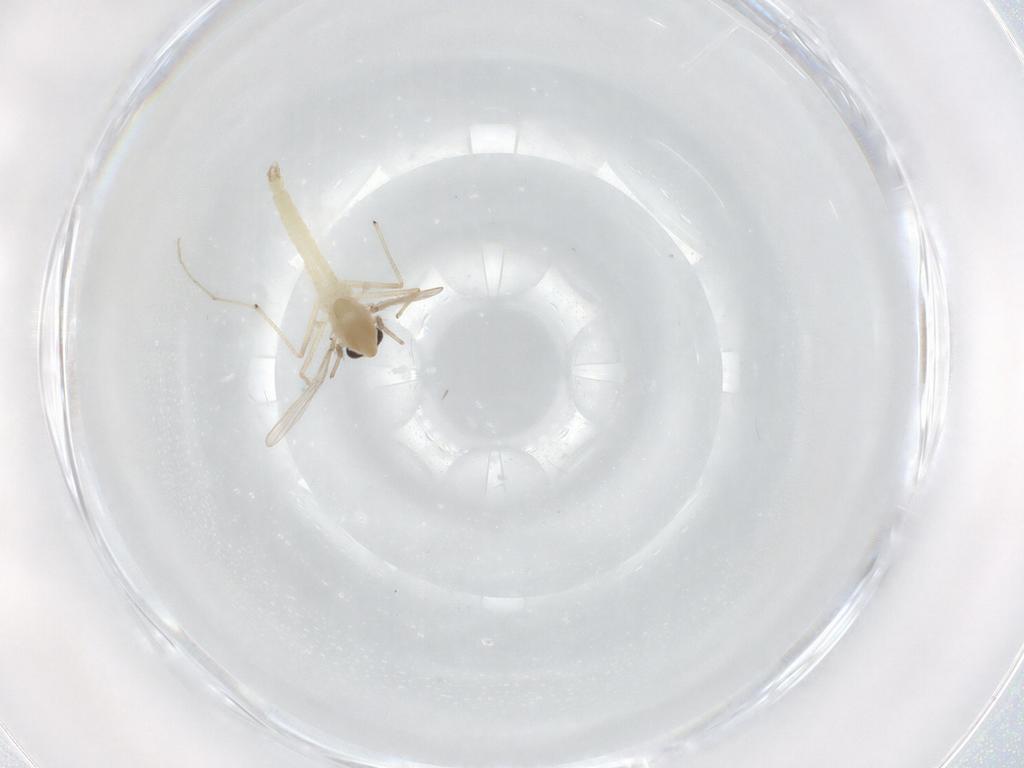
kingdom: Animalia
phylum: Arthropoda
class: Insecta
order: Diptera
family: Chironomidae
